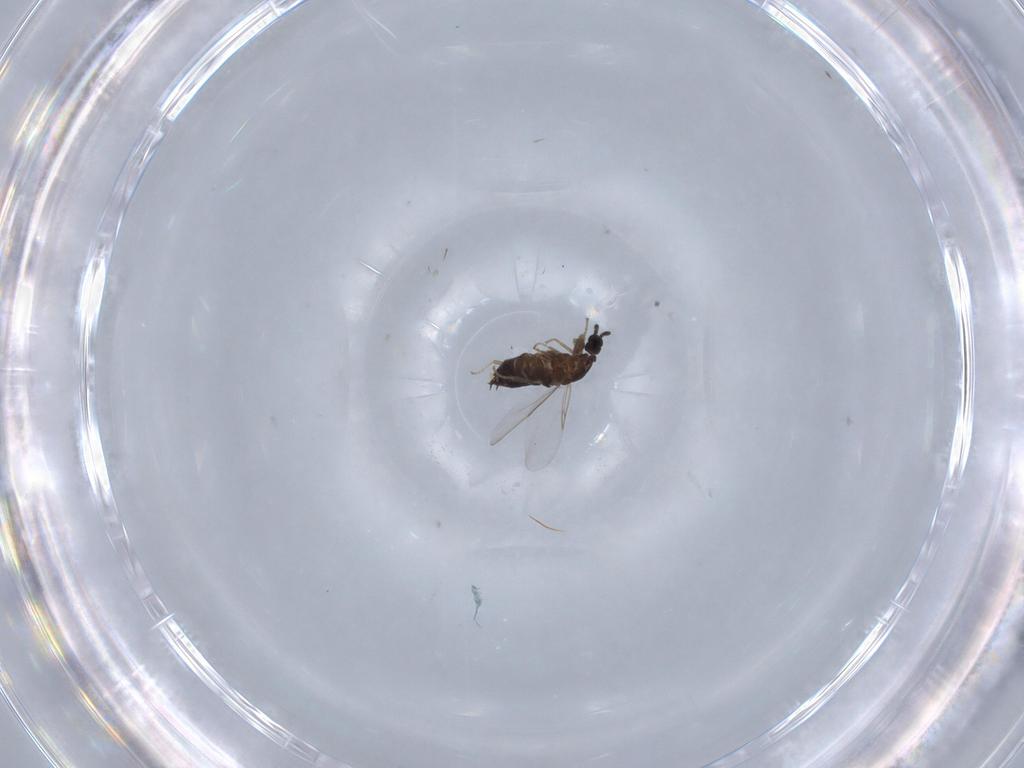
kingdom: Animalia
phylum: Arthropoda
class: Insecta
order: Diptera
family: Scatopsidae
